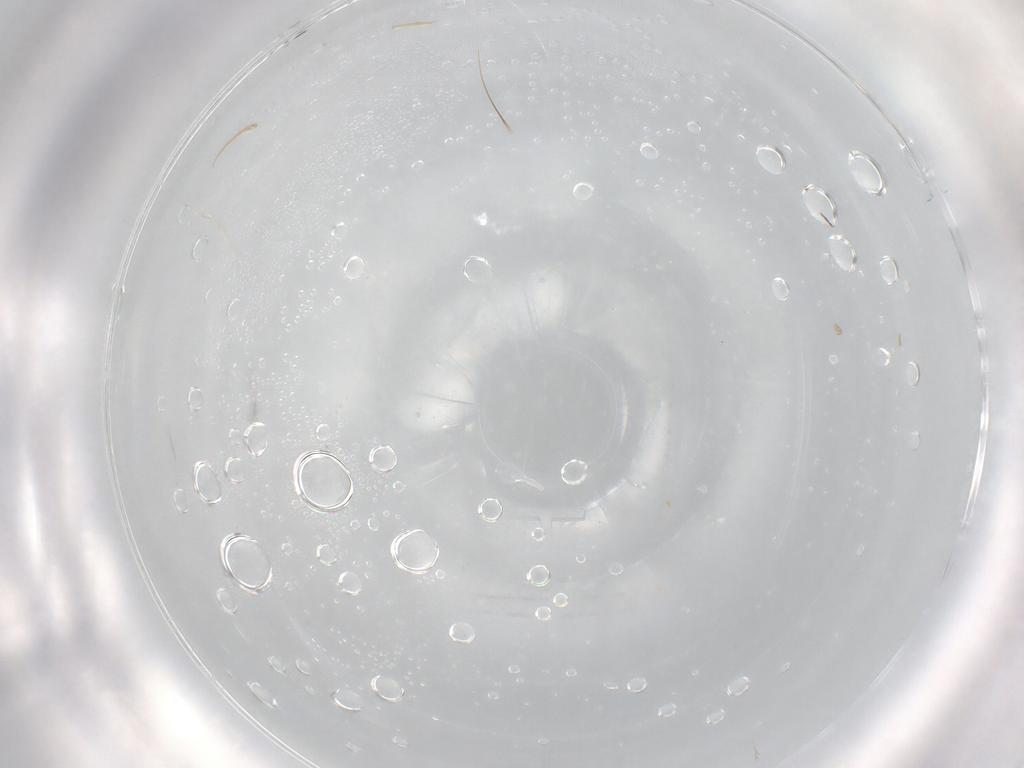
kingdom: Animalia
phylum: Arthropoda
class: Arachnida
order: Trombidiformes
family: Eupodidae
